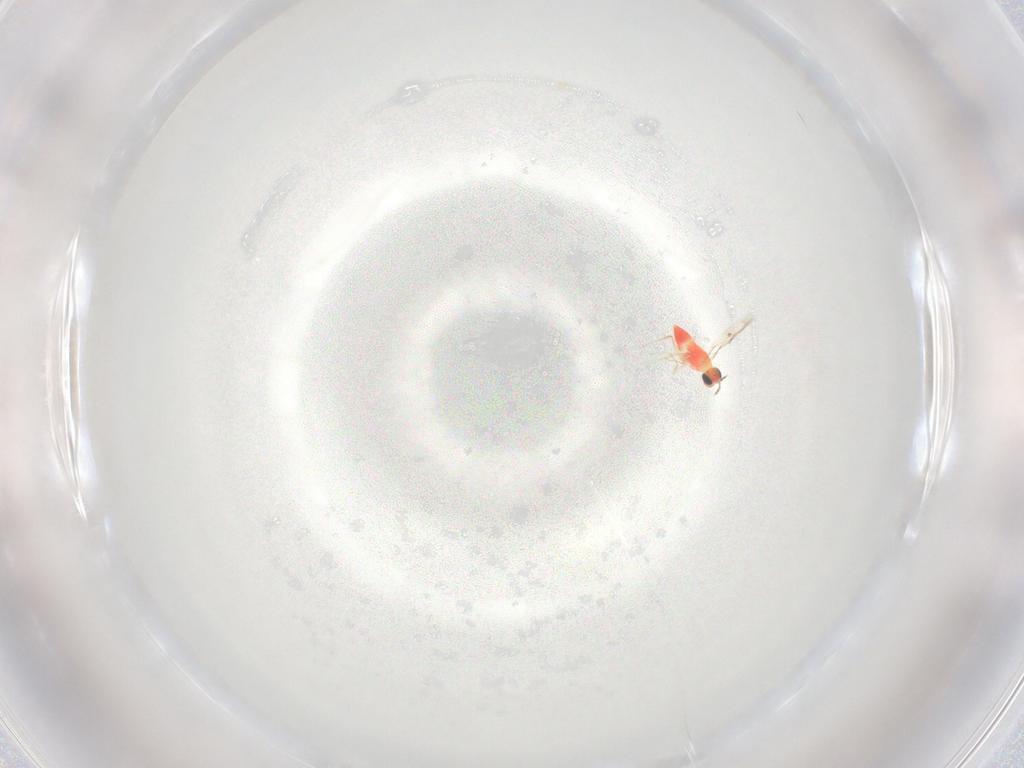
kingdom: Animalia
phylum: Arthropoda
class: Insecta
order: Hymenoptera
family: Trichogrammatidae
